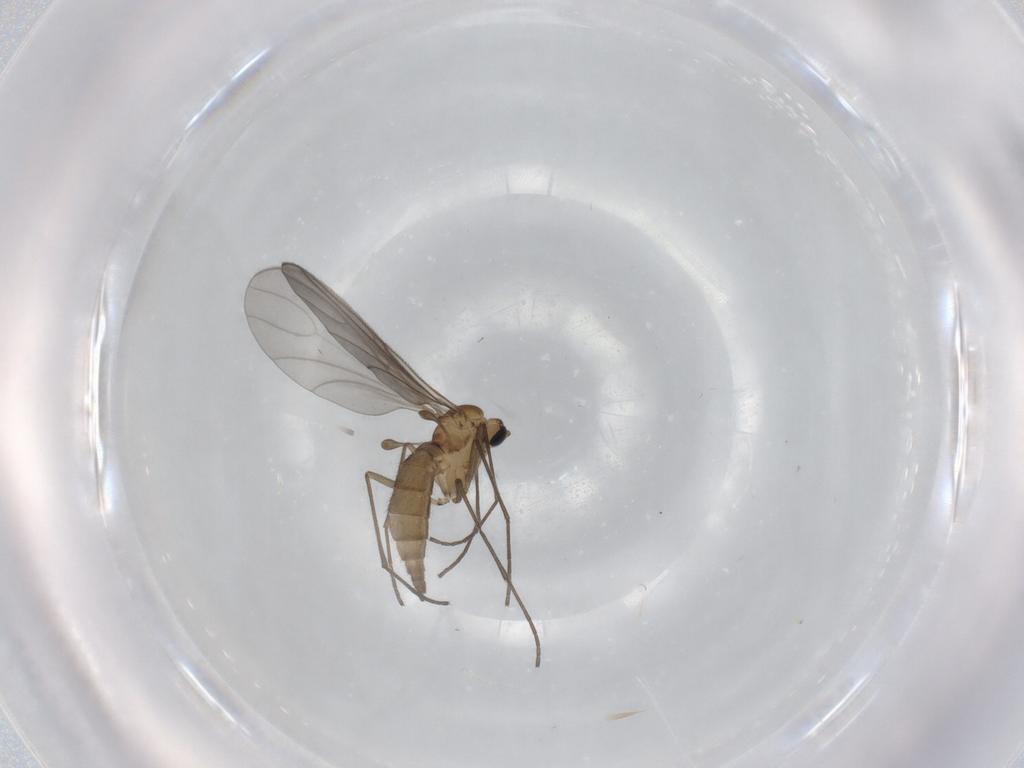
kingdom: Animalia
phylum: Arthropoda
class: Insecta
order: Diptera
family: Sciaridae
